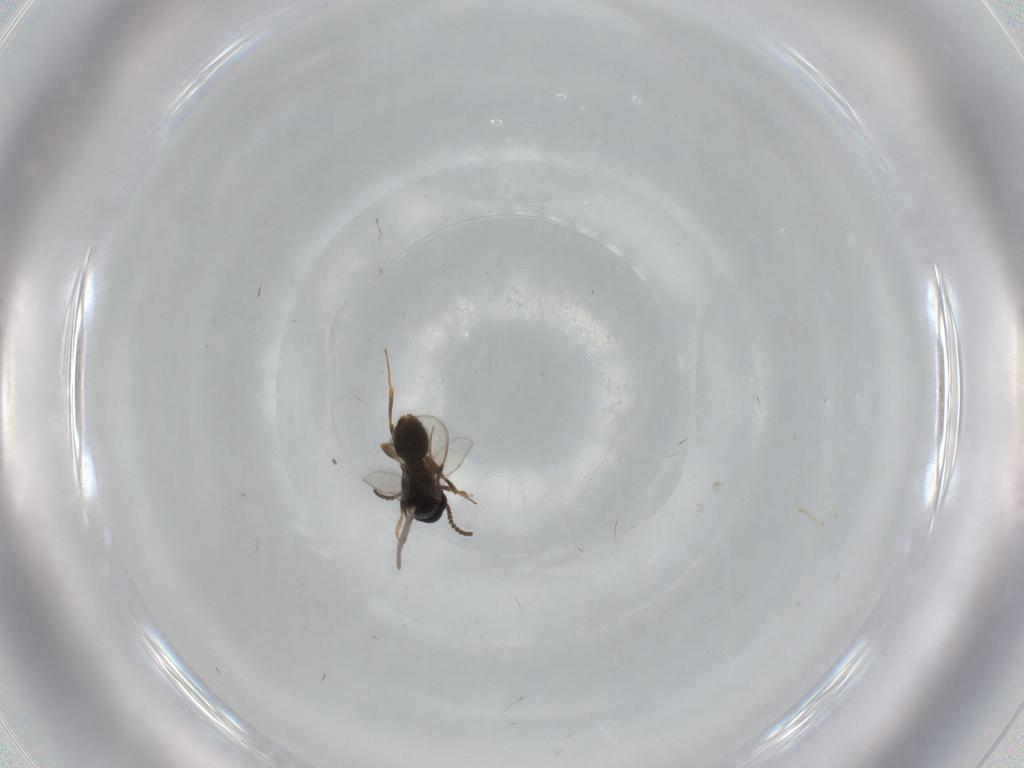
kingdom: Animalia
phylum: Arthropoda
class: Insecta
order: Hymenoptera
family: Bethylidae
